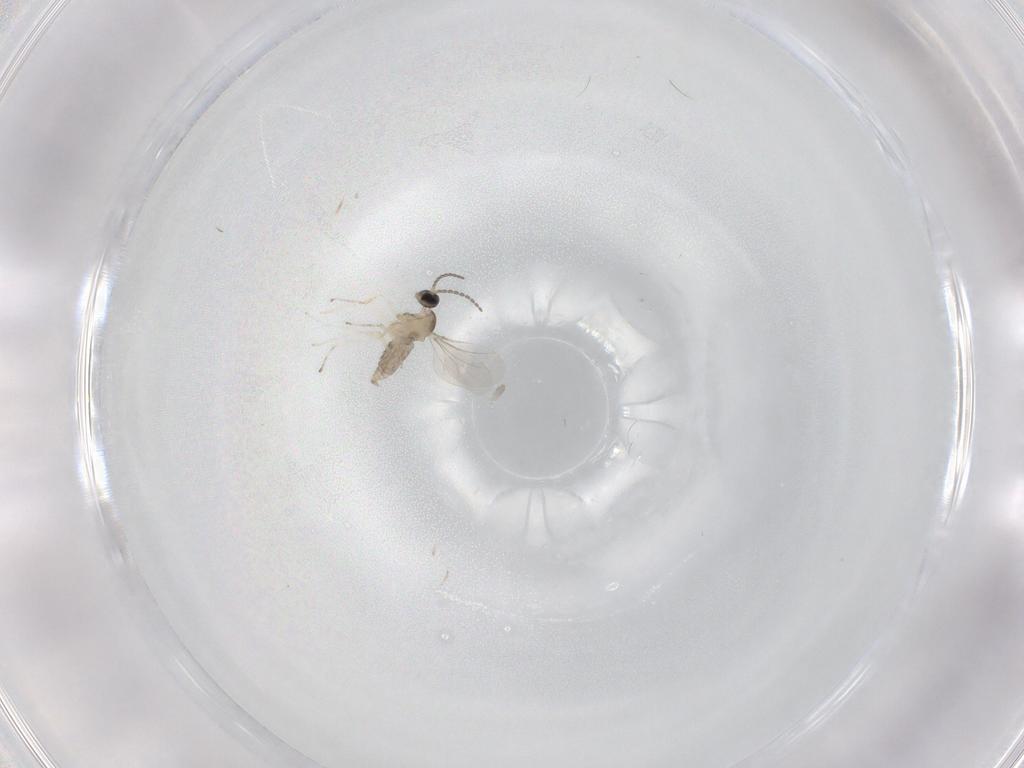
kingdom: Animalia
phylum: Arthropoda
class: Insecta
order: Diptera
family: Cecidomyiidae
